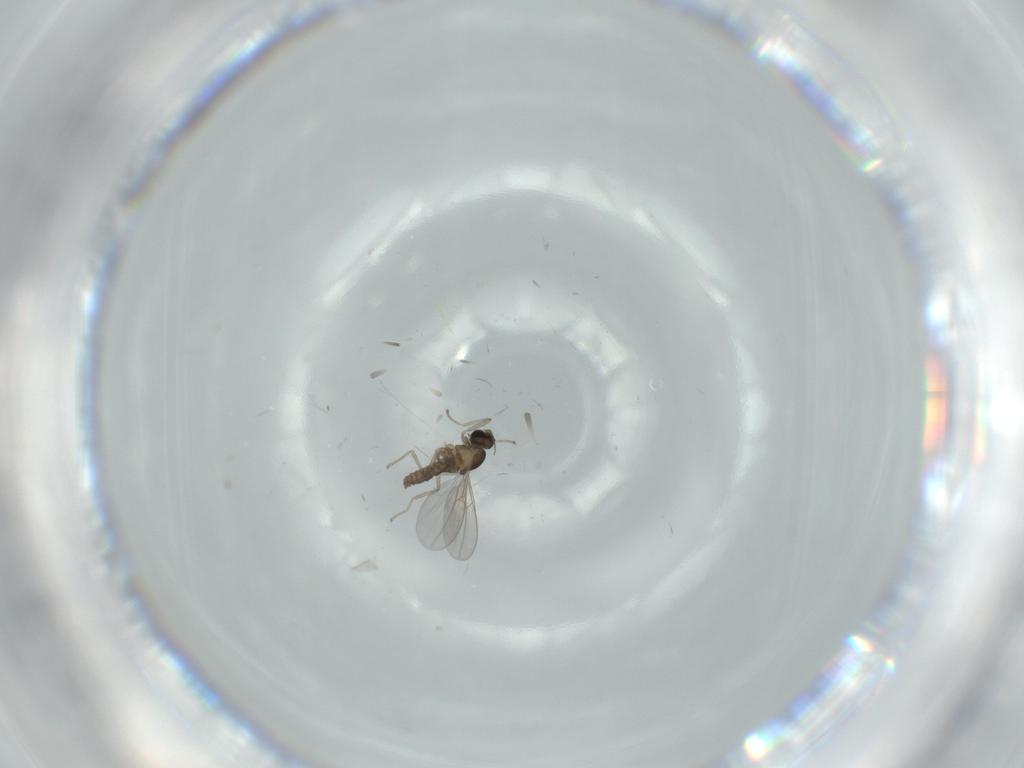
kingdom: Animalia
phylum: Arthropoda
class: Insecta
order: Diptera
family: Cecidomyiidae
